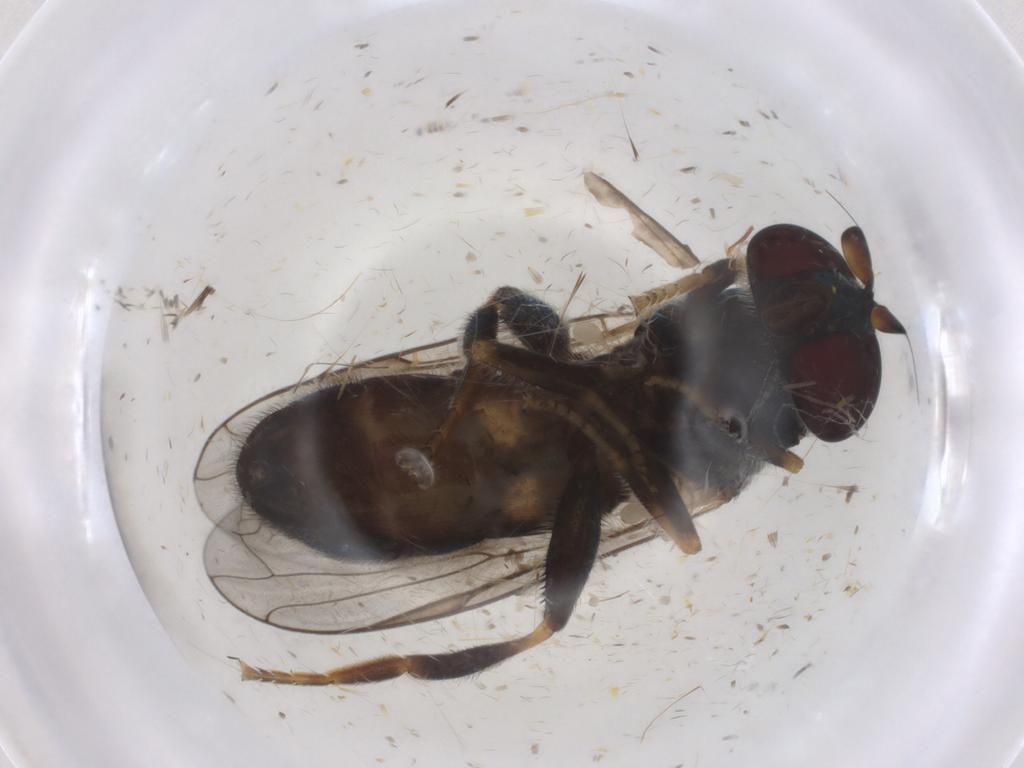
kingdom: Animalia
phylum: Arthropoda
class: Insecta
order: Diptera
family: Psychodidae
